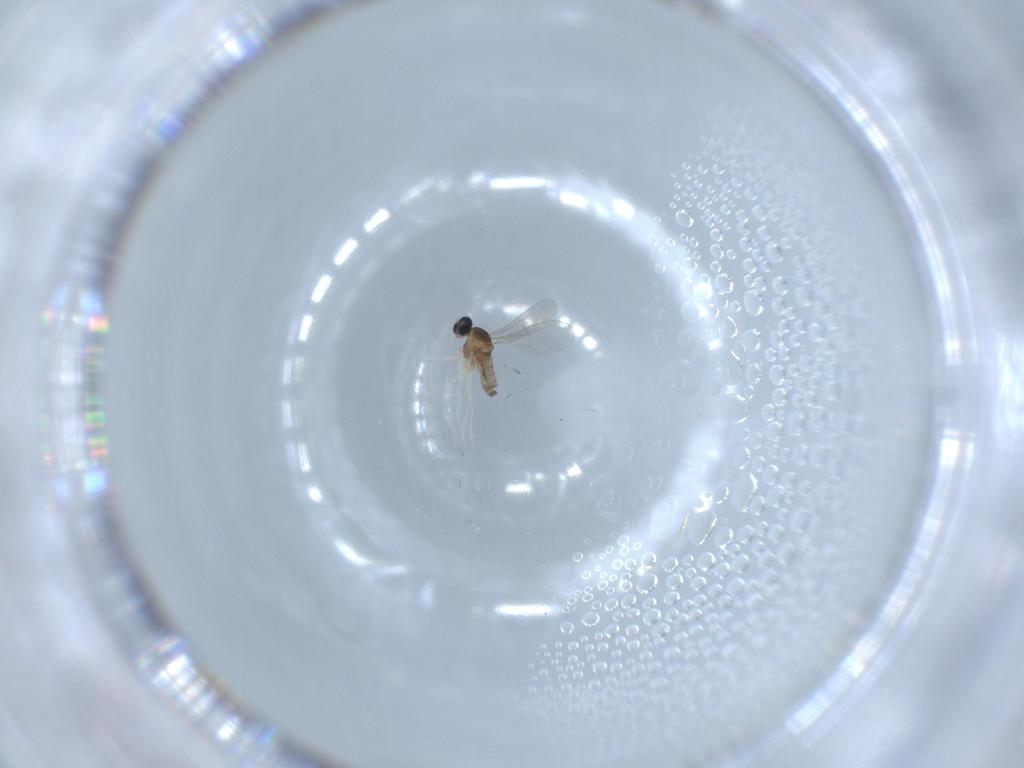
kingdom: Animalia
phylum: Arthropoda
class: Insecta
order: Diptera
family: Cecidomyiidae
